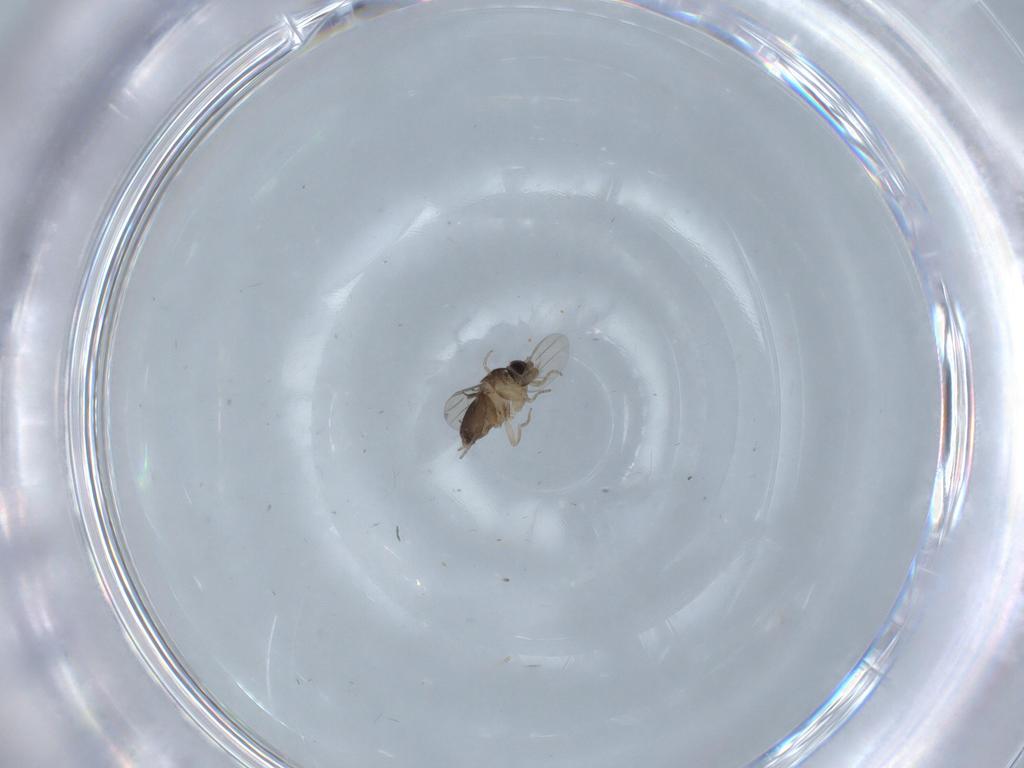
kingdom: Animalia
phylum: Arthropoda
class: Insecta
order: Diptera
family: Phoridae
